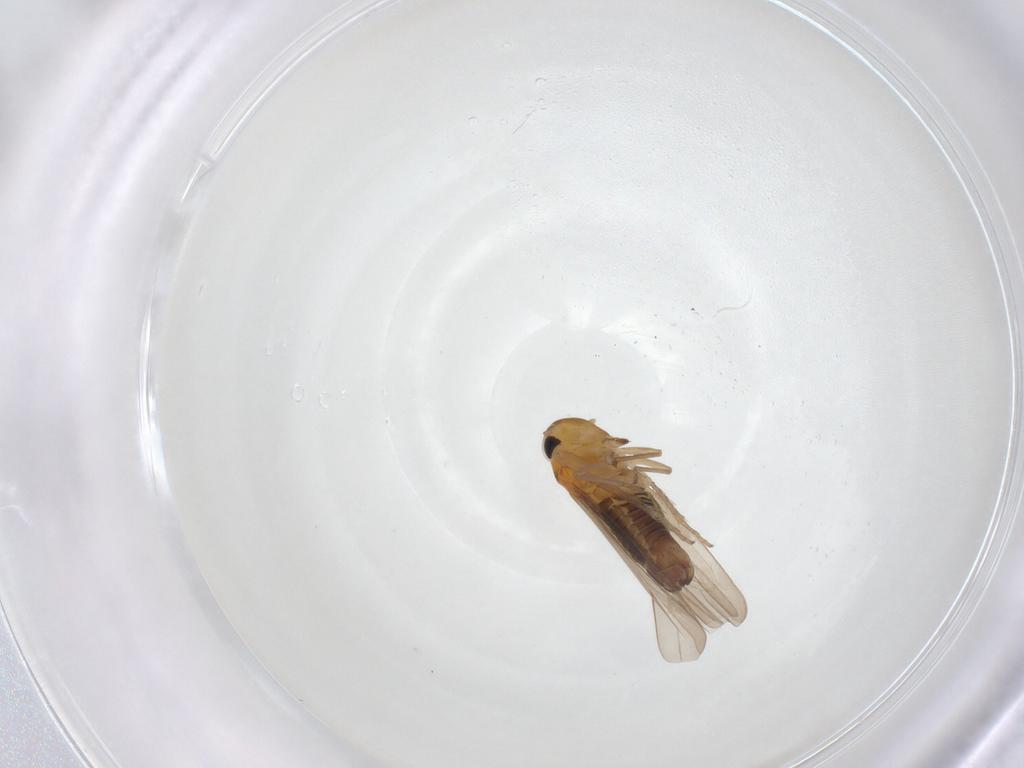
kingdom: Animalia
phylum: Arthropoda
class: Insecta
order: Hemiptera
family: Cicadellidae
